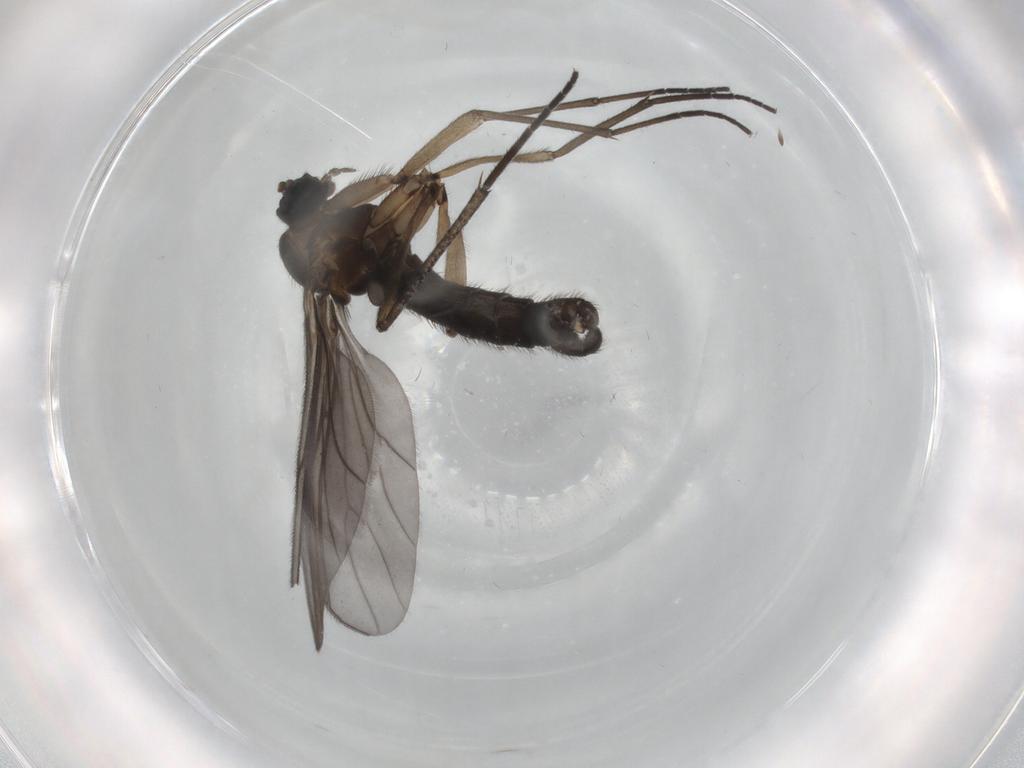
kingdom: Animalia
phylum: Arthropoda
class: Insecta
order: Diptera
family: Sciaridae
